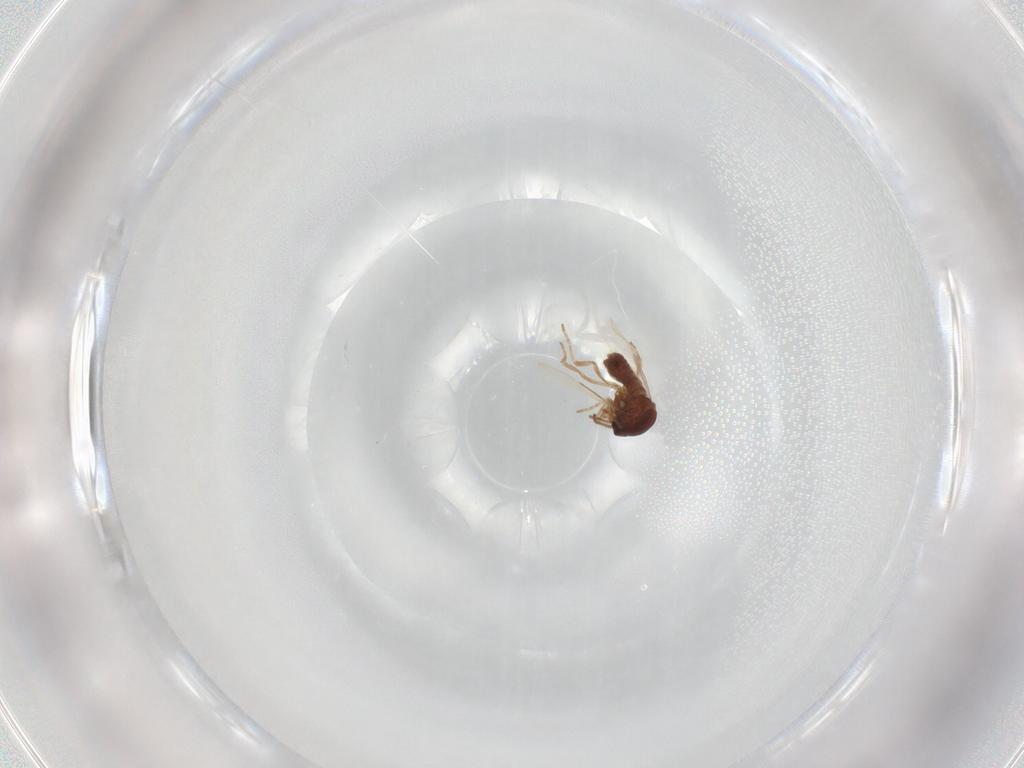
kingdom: Animalia
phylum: Arthropoda
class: Insecta
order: Diptera
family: Ceratopogonidae
